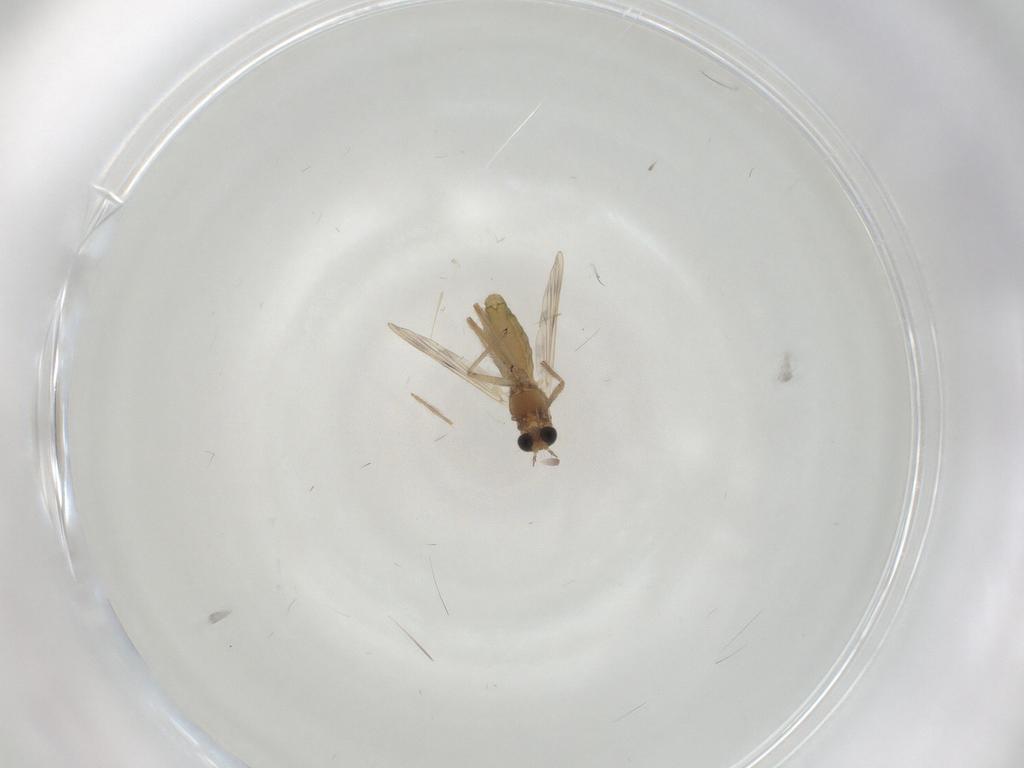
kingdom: Animalia
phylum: Arthropoda
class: Insecta
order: Diptera
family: Chironomidae
